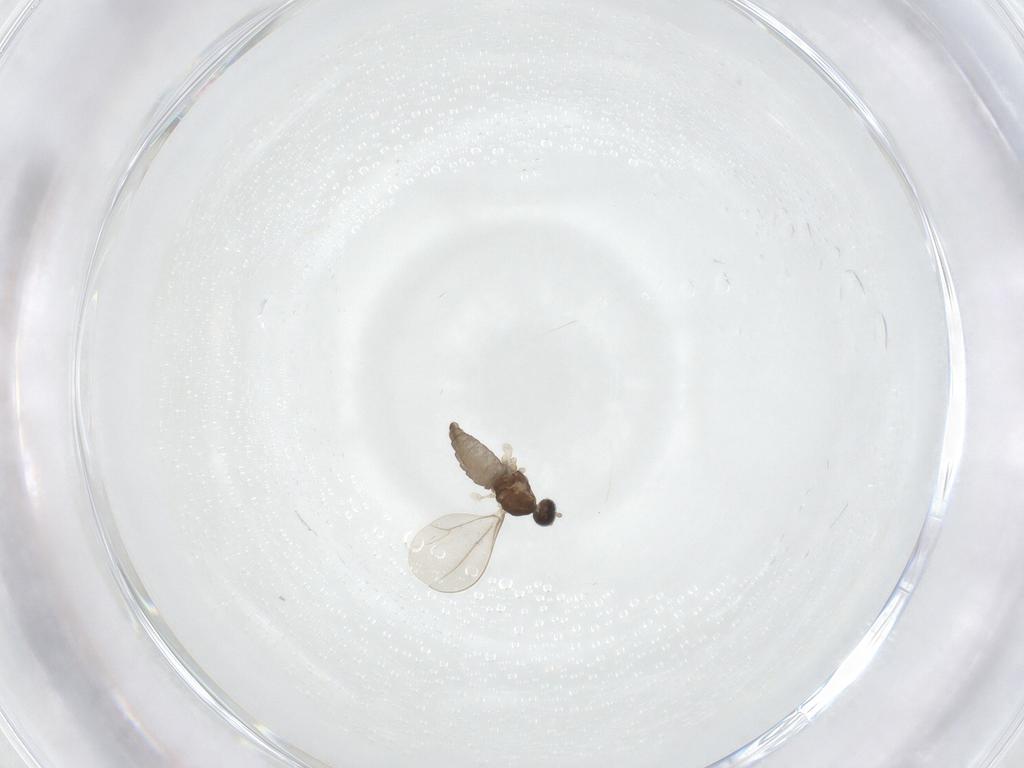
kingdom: Animalia
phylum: Arthropoda
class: Insecta
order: Diptera
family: Cecidomyiidae
